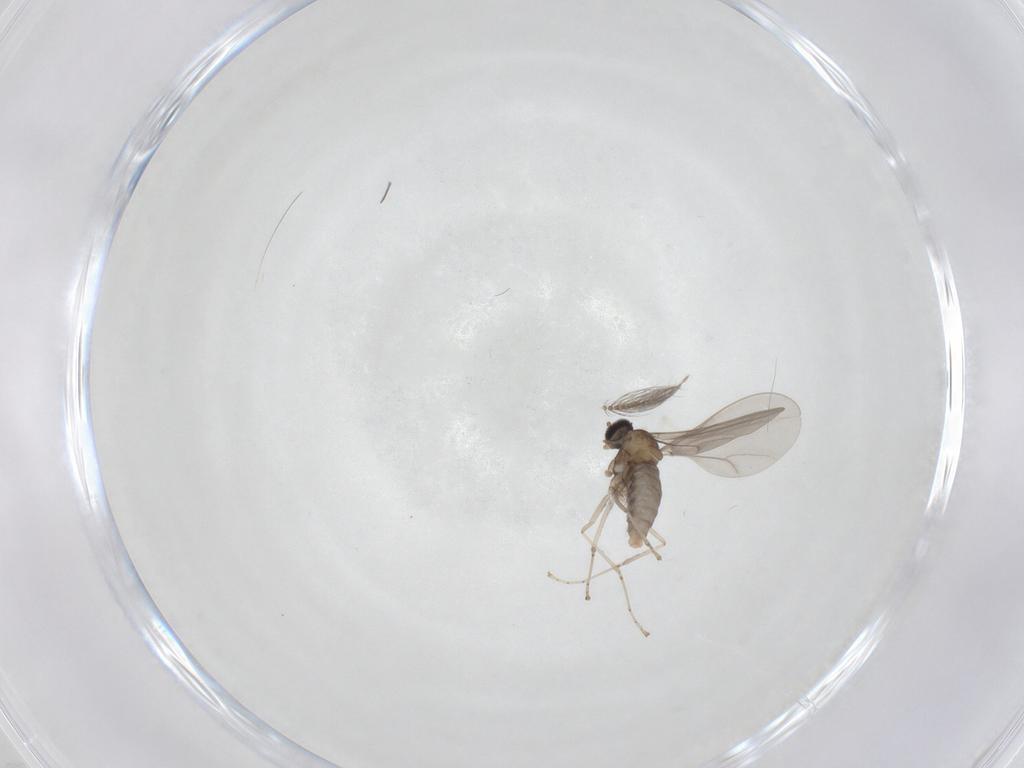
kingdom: Animalia
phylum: Arthropoda
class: Insecta
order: Diptera
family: Cecidomyiidae
